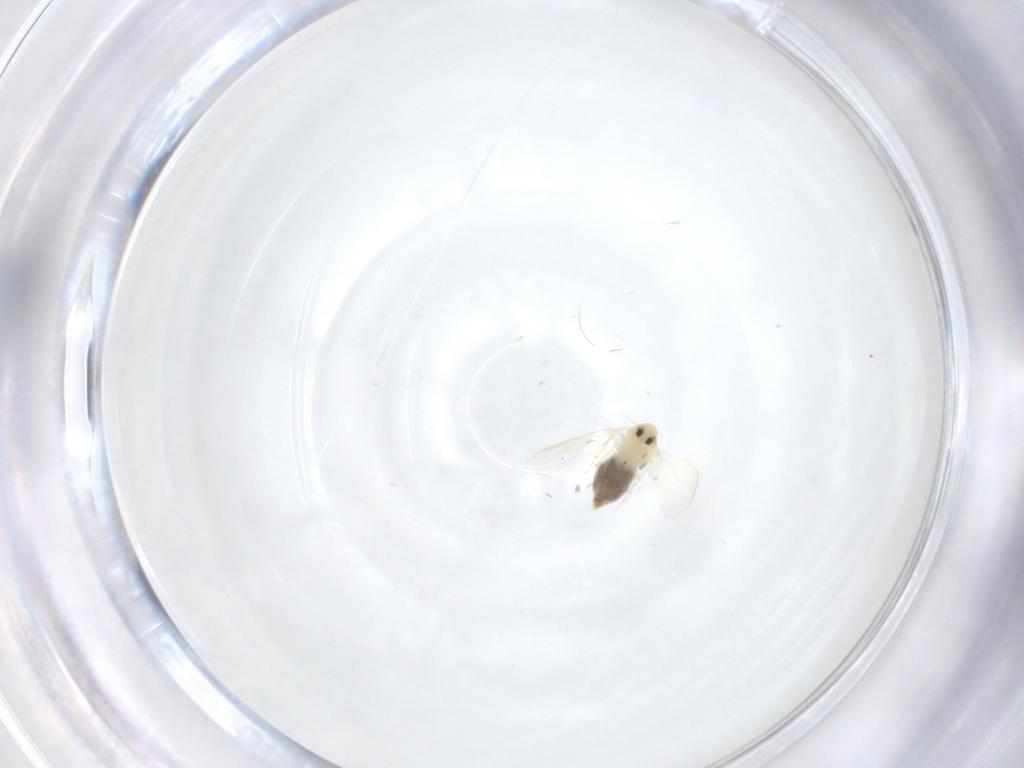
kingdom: Animalia
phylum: Arthropoda
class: Insecta
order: Hemiptera
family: Aleyrodidae
